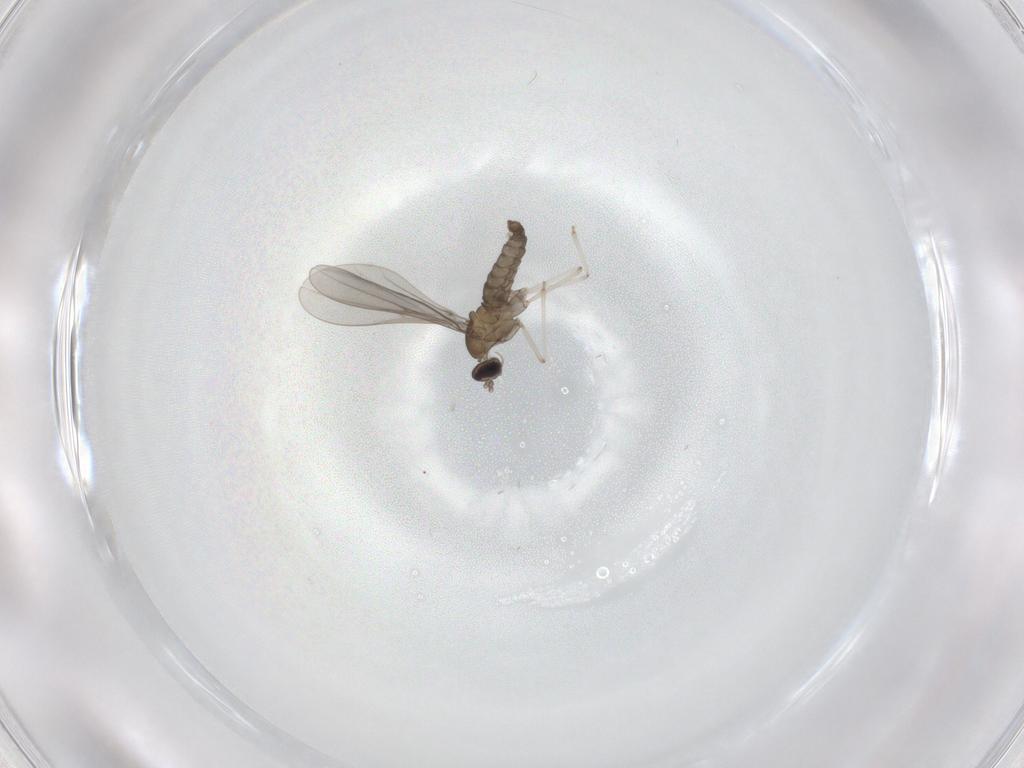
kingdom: Animalia
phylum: Arthropoda
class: Insecta
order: Diptera
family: Cecidomyiidae
